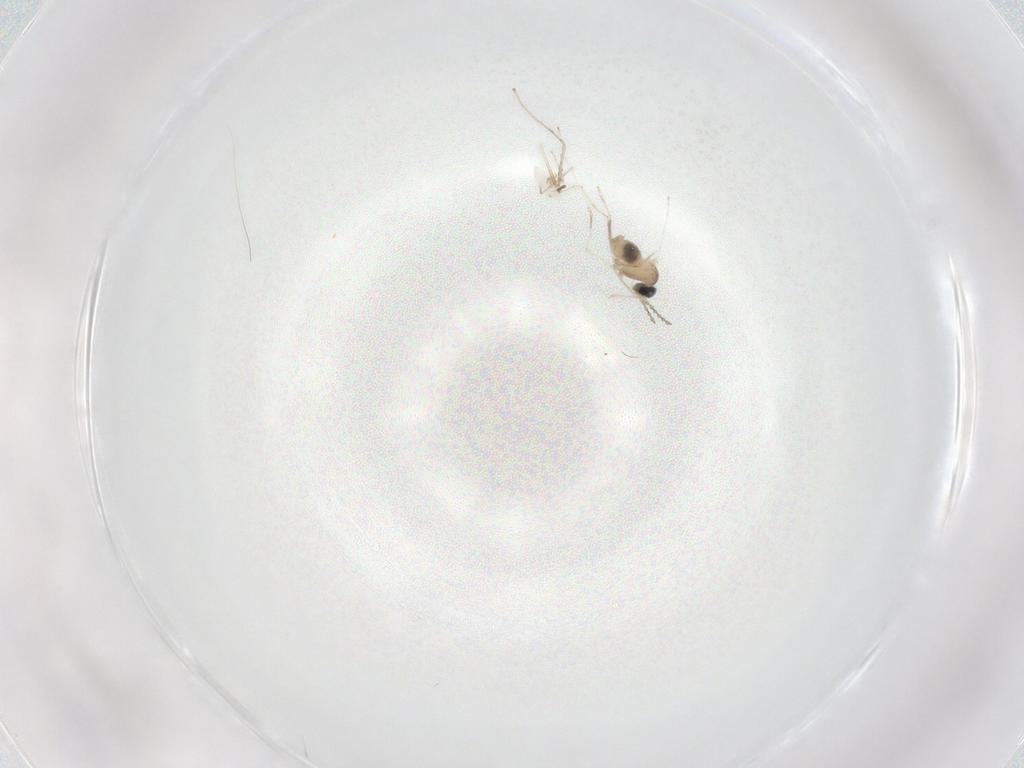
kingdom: Animalia
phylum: Arthropoda
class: Insecta
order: Diptera
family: Cecidomyiidae
